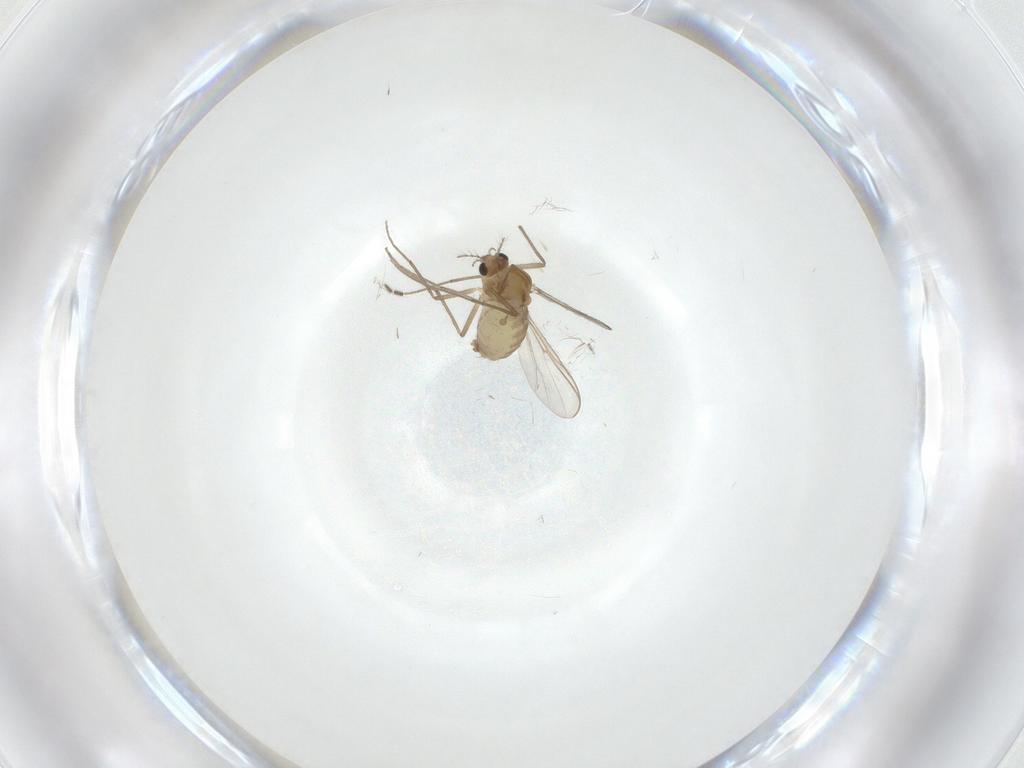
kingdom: Animalia
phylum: Arthropoda
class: Insecta
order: Diptera
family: Chironomidae
